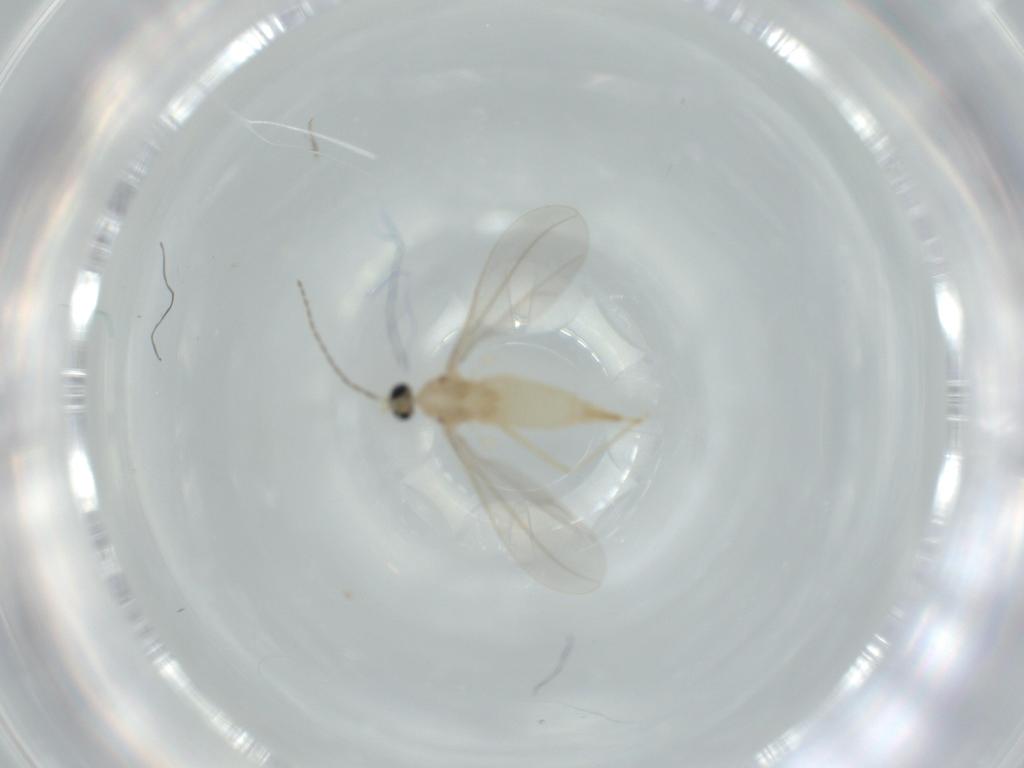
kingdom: Animalia
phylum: Arthropoda
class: Insecta
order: Diptera
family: Cecidomyiidae
